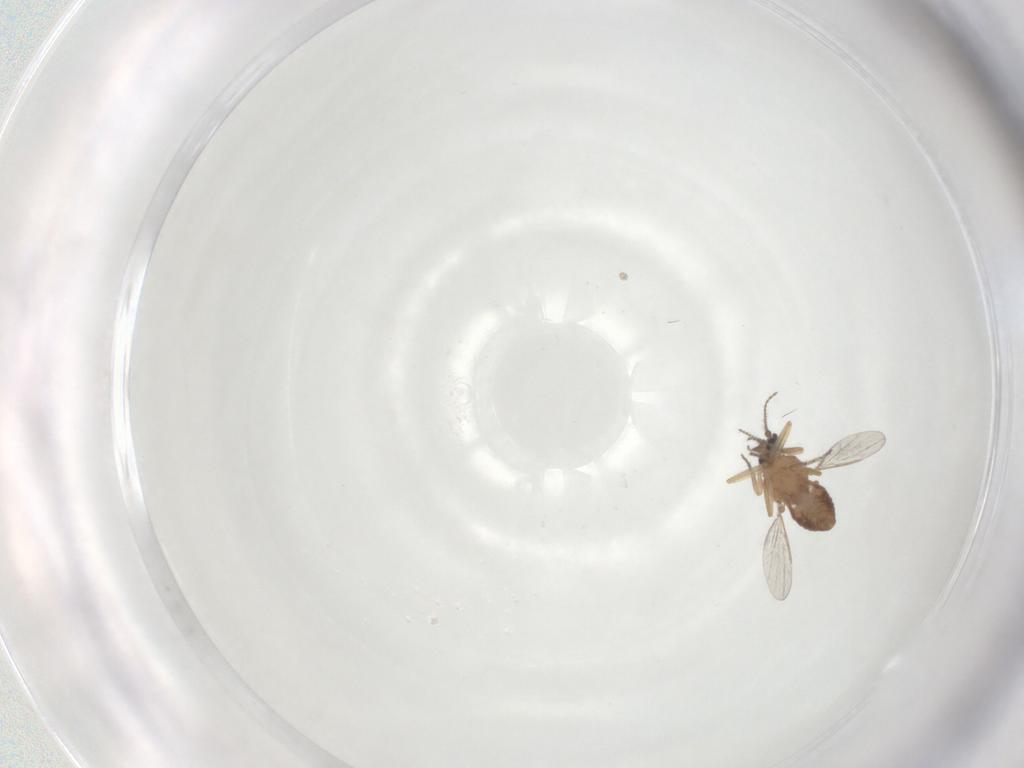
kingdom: Animalia
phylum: Arthropoda
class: Insecta
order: Diptera
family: Ceratopogonidae
